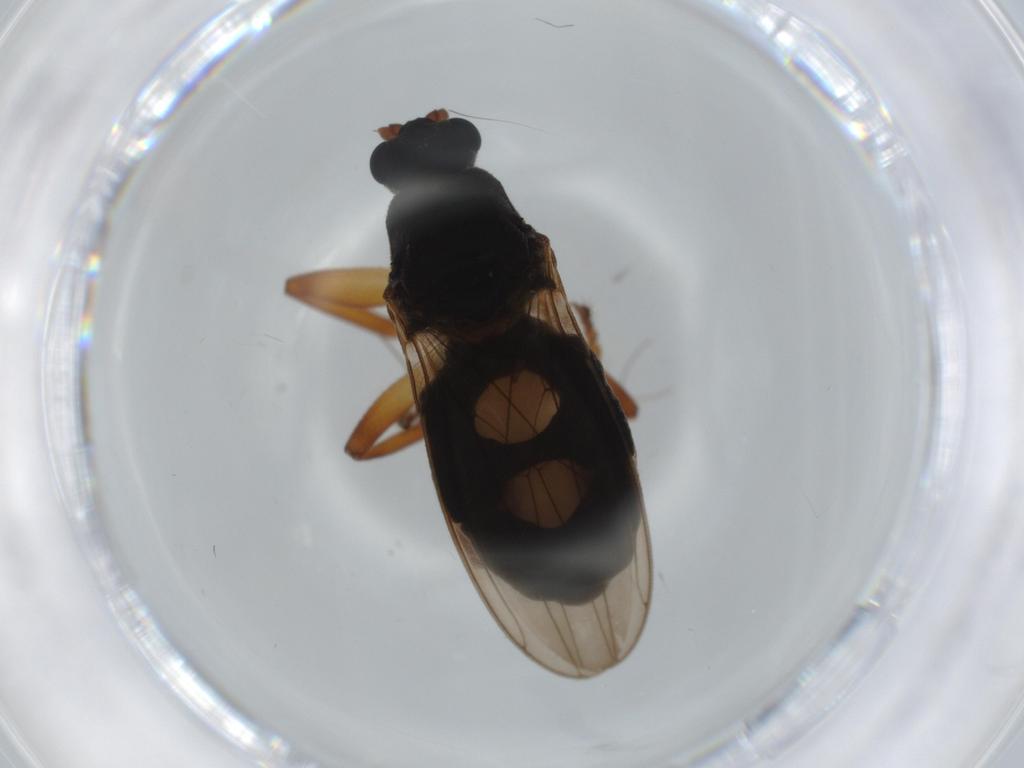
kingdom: Animalia
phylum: Arthropoda
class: Insecta
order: Diptera
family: Sphaeroceridae
